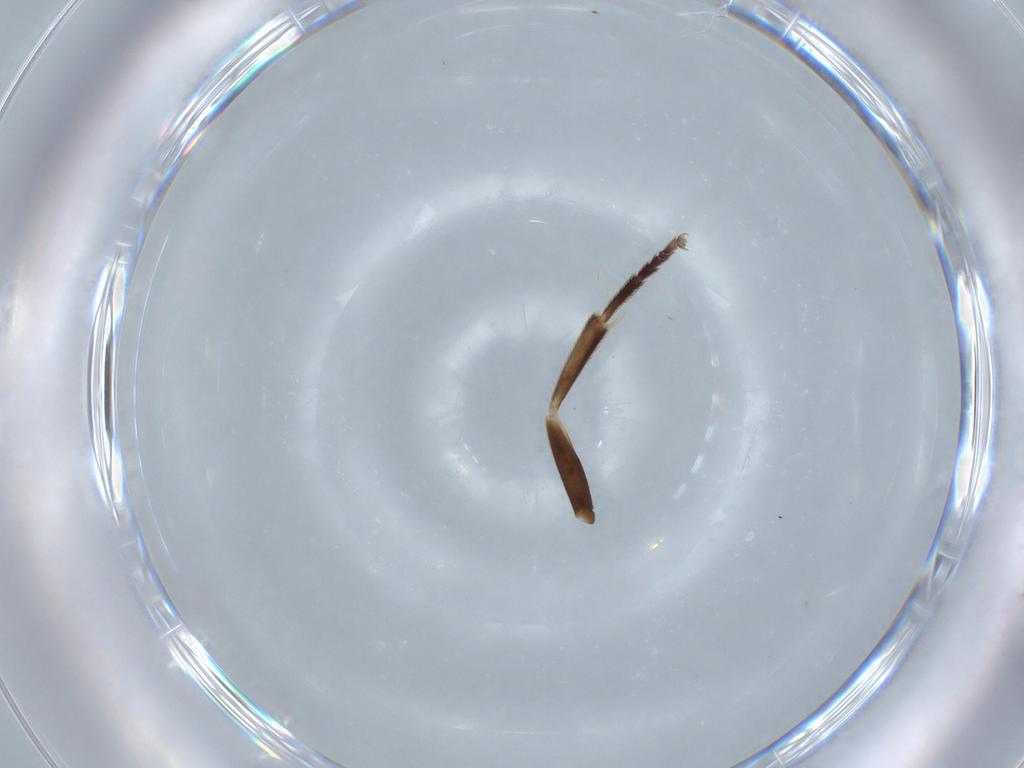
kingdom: Animalia
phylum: Arthropoda
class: Insecta
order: Hymenoptera
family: Tenthredinidae
